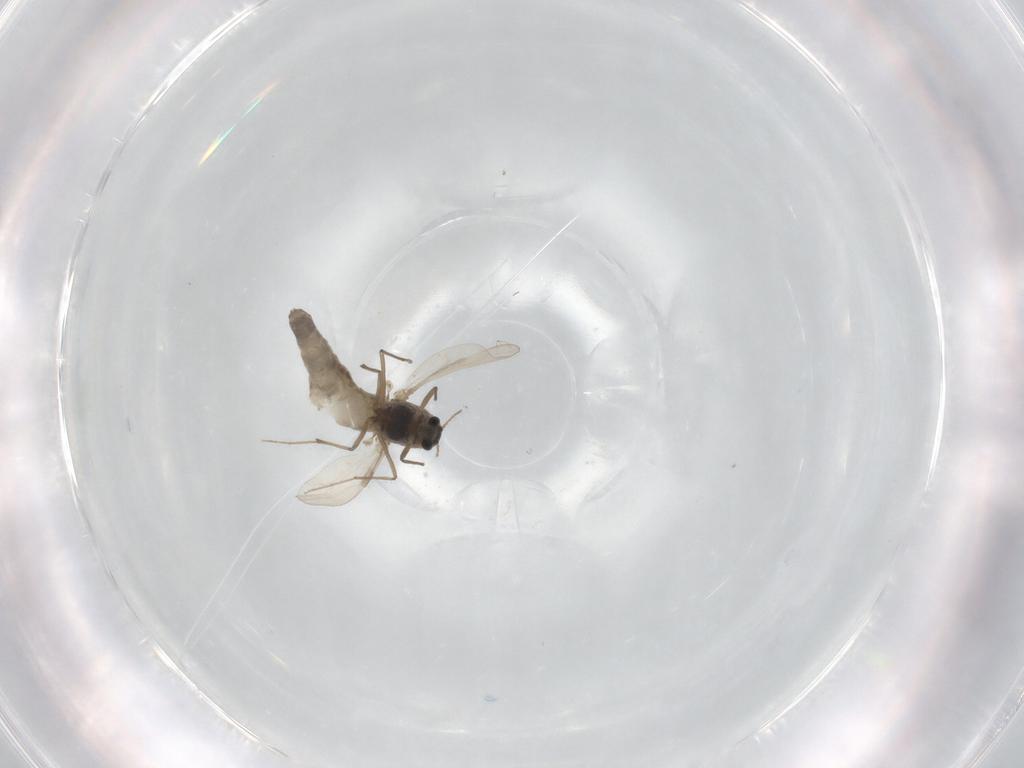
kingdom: Animalia
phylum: Arthropoda
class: Insecta
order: Diptera
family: Chironomidae
